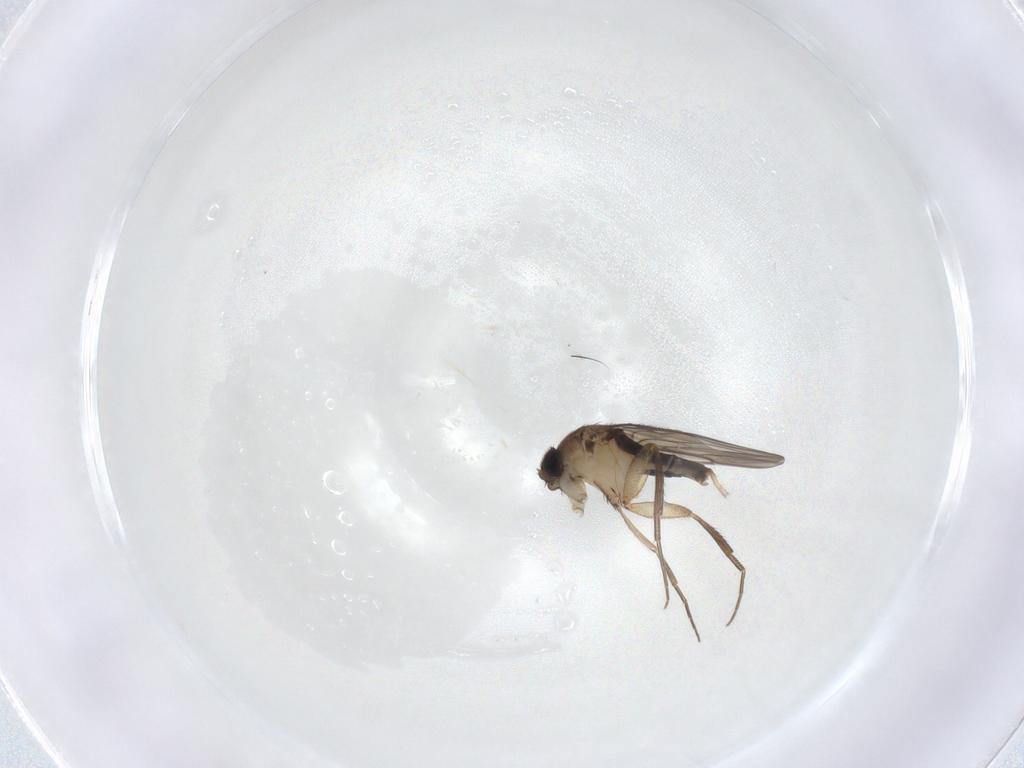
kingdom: Animalia
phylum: Arthropoda
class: Insecta
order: Diptera
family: Phoridae
